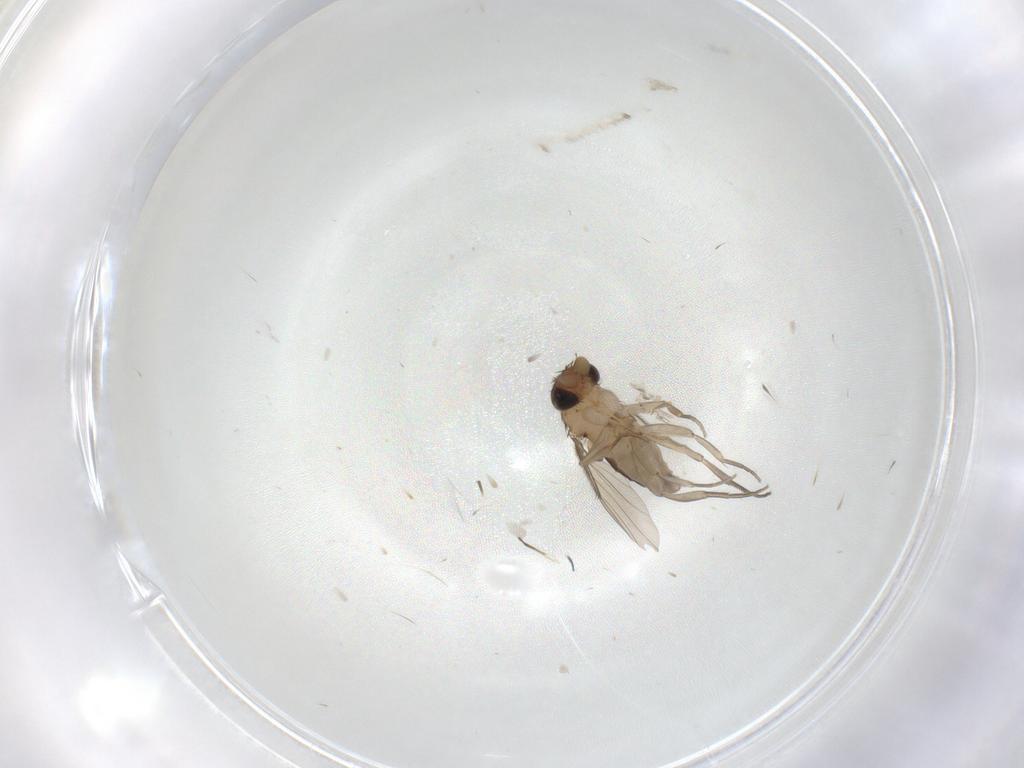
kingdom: Animalia
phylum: Arthropoda
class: Insecta
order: Diptera
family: Phoridae
